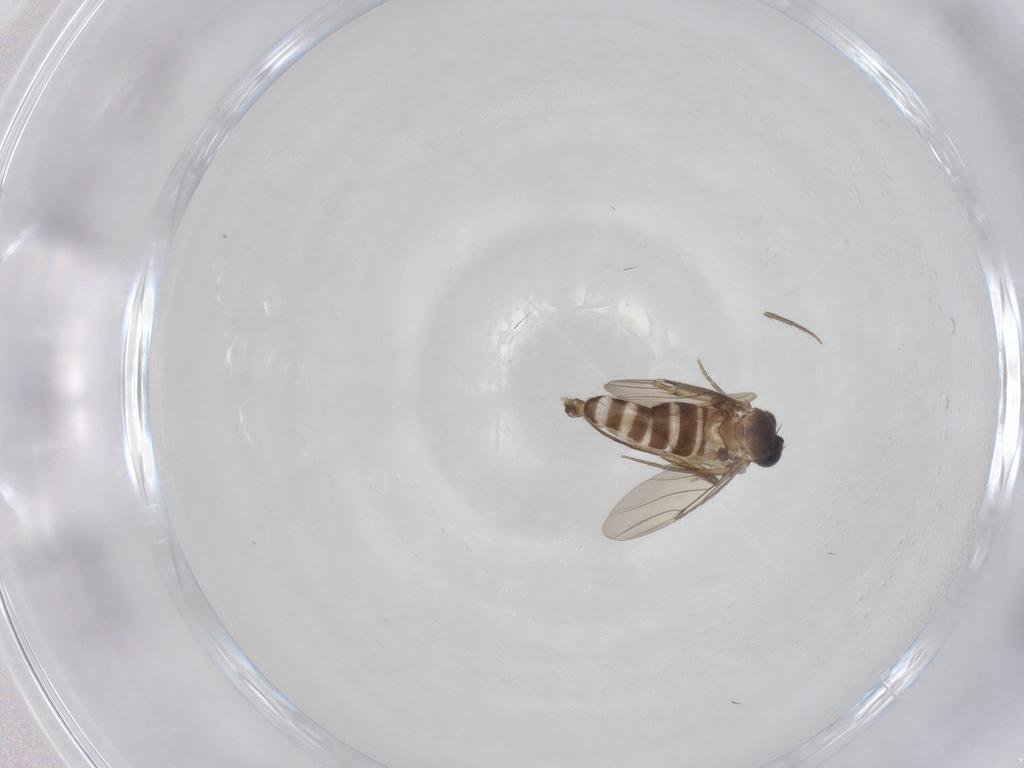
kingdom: Animalia
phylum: Arthropoda
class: Insecta
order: Diptera
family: Phoridae
